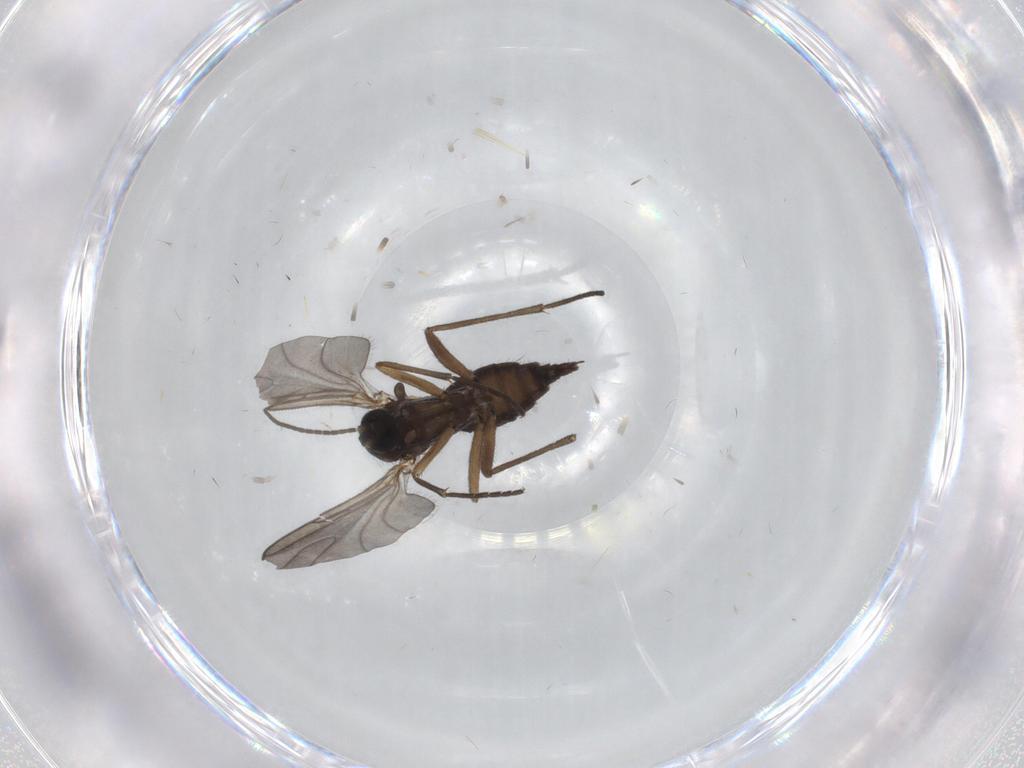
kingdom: Animalia
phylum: Arthropoda
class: Insecta
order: Diptera
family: Sciaridae
